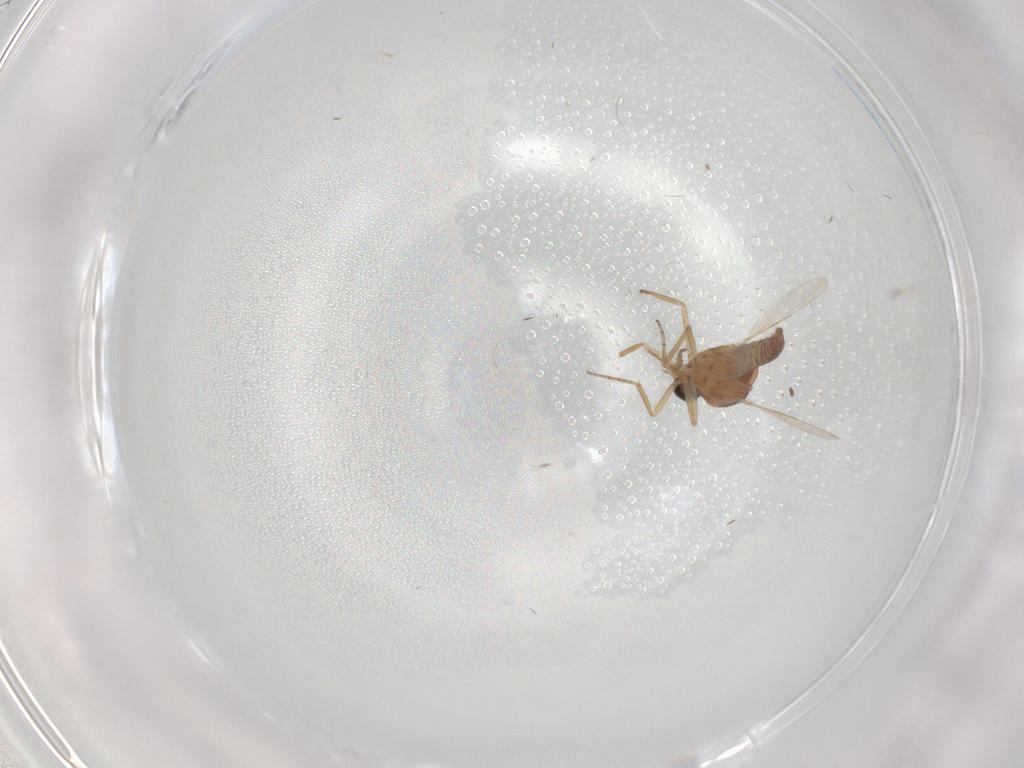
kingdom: Animalia
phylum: Arthropoda
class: Insecta
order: Diptera
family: Ceratopogonidae
